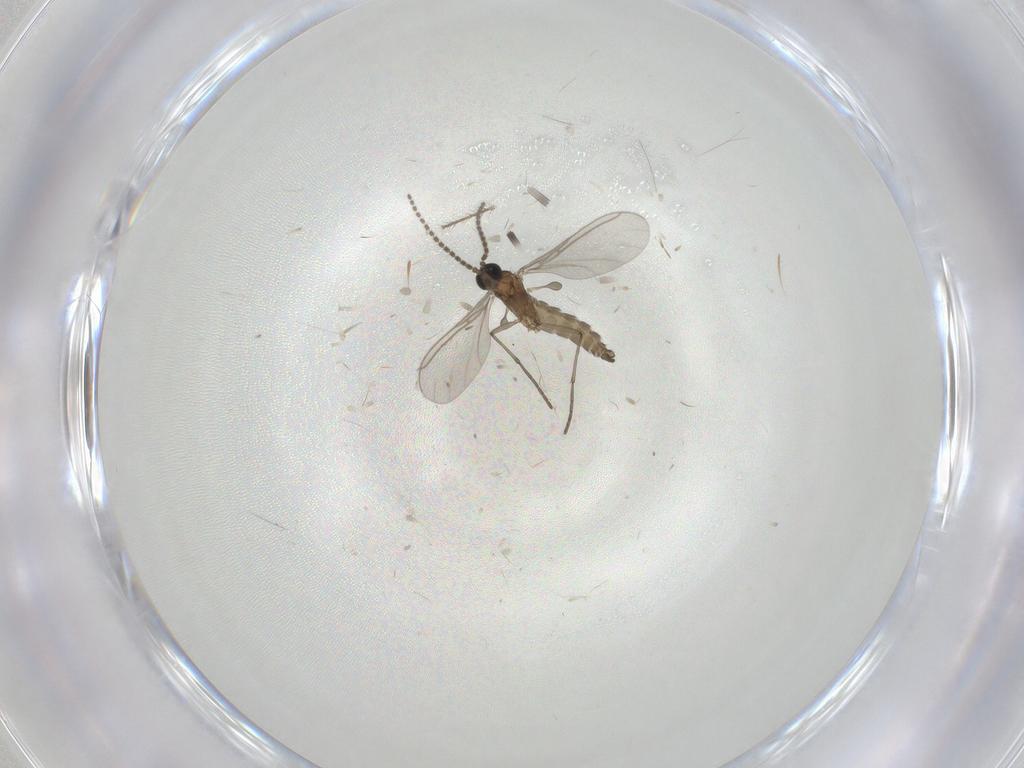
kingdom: Animalia
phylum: Arthropoda
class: Insecta
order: Diptera
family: Sciaridae
